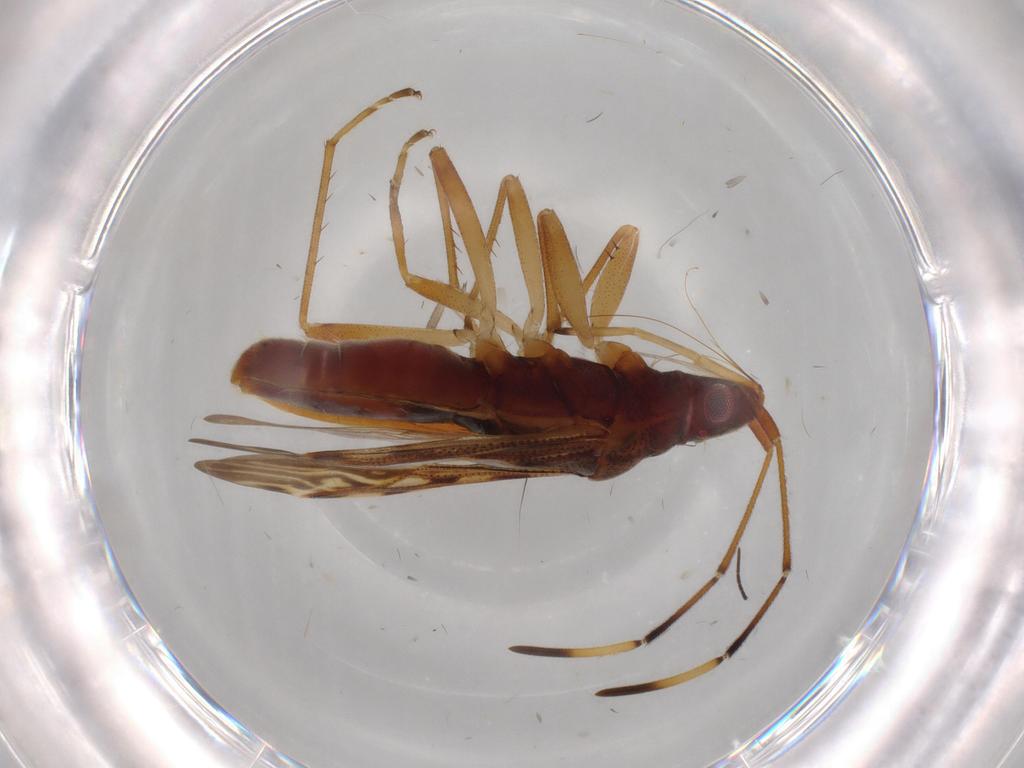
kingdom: Animalia
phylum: Arthropoda
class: Insecta
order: Hemiptera
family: Rhyparochromidae
